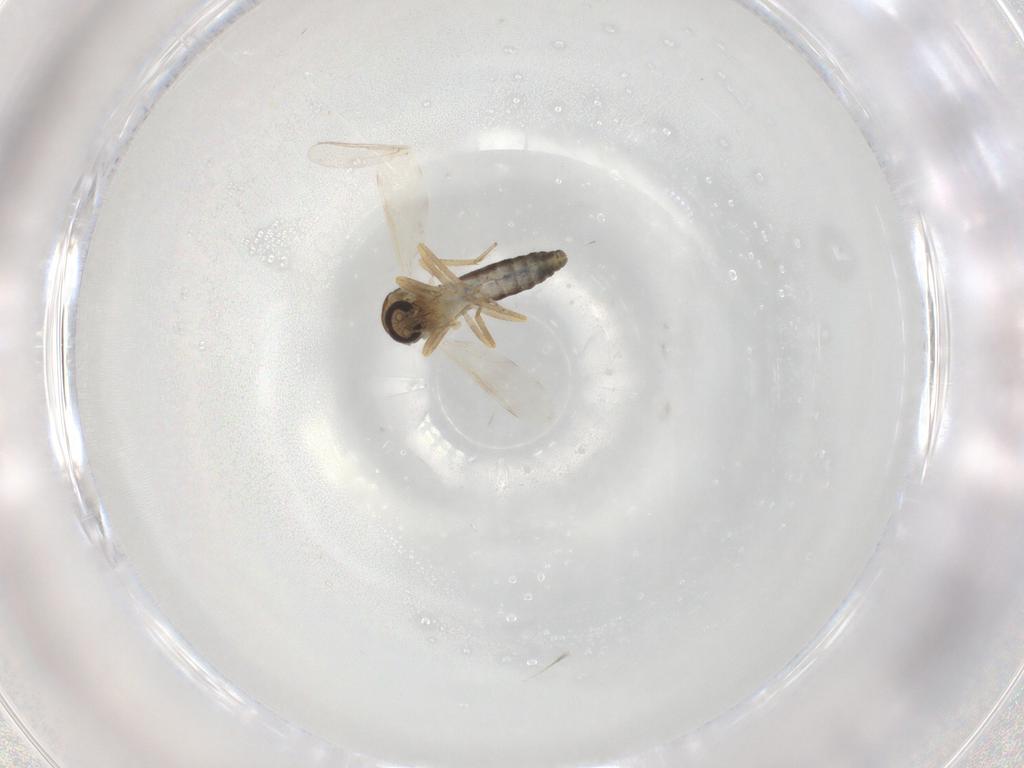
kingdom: Animalia
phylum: Arthropoda
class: Insecta
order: Diptera
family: Ceratopogonidae
